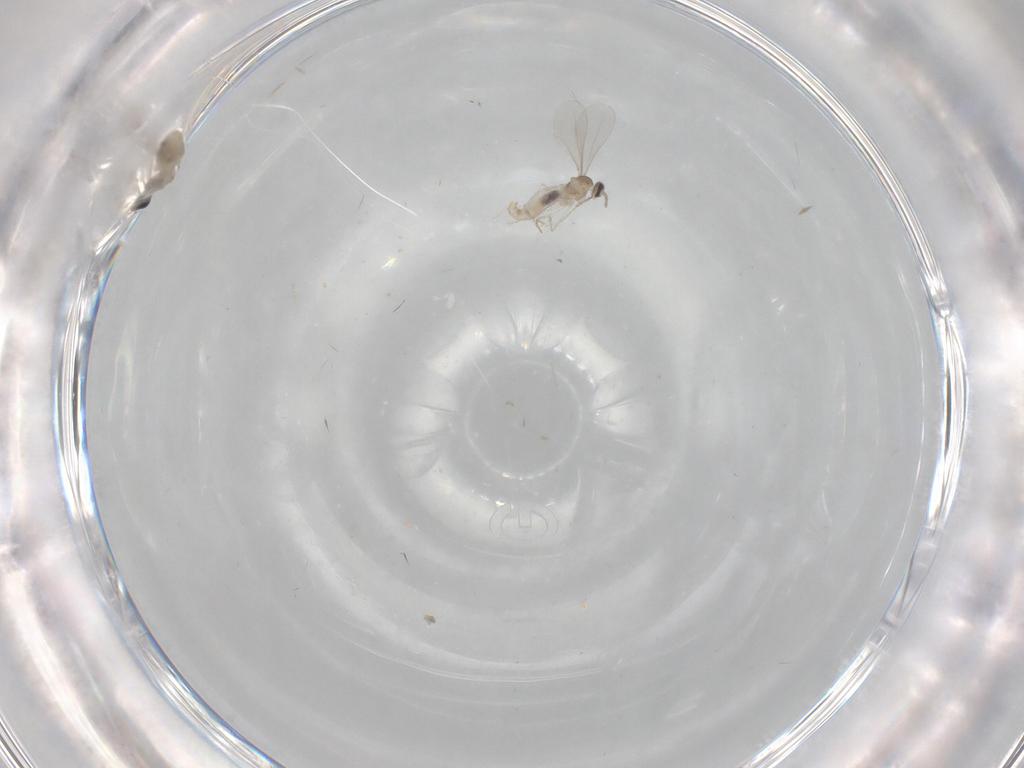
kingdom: Animalia
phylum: Arthropoda
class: Insecta
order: Diptera
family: Cecidomyiidae
